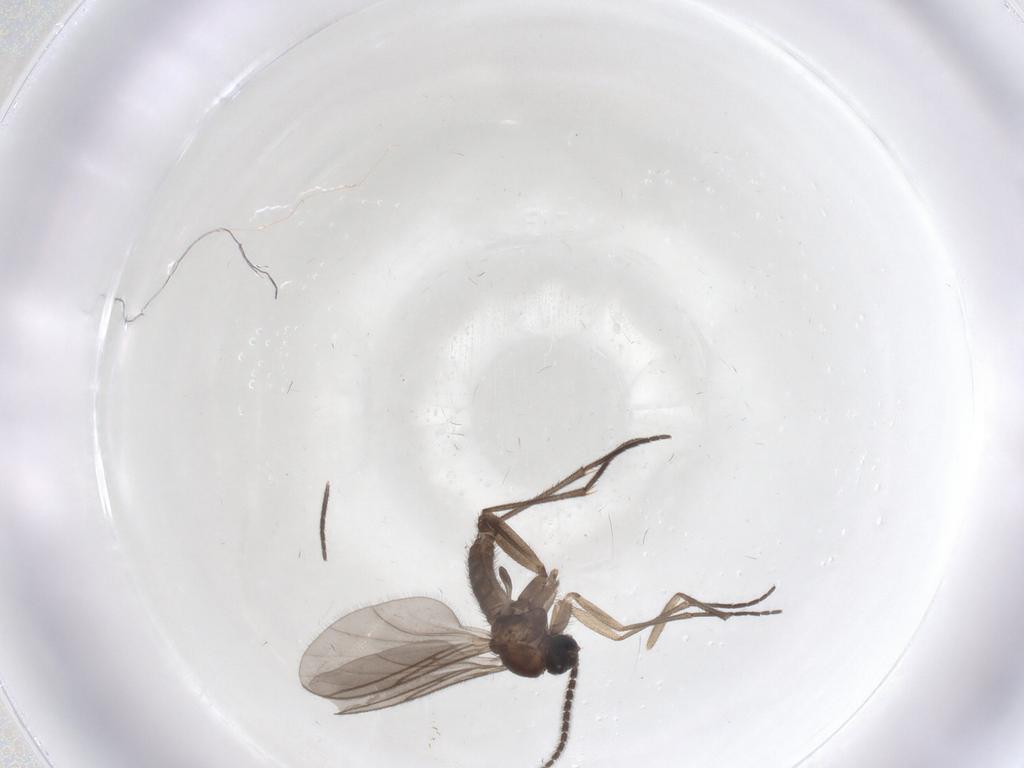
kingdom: Animalia
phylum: Arthropoda
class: Insecta
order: Diptera
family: Sciaridae
